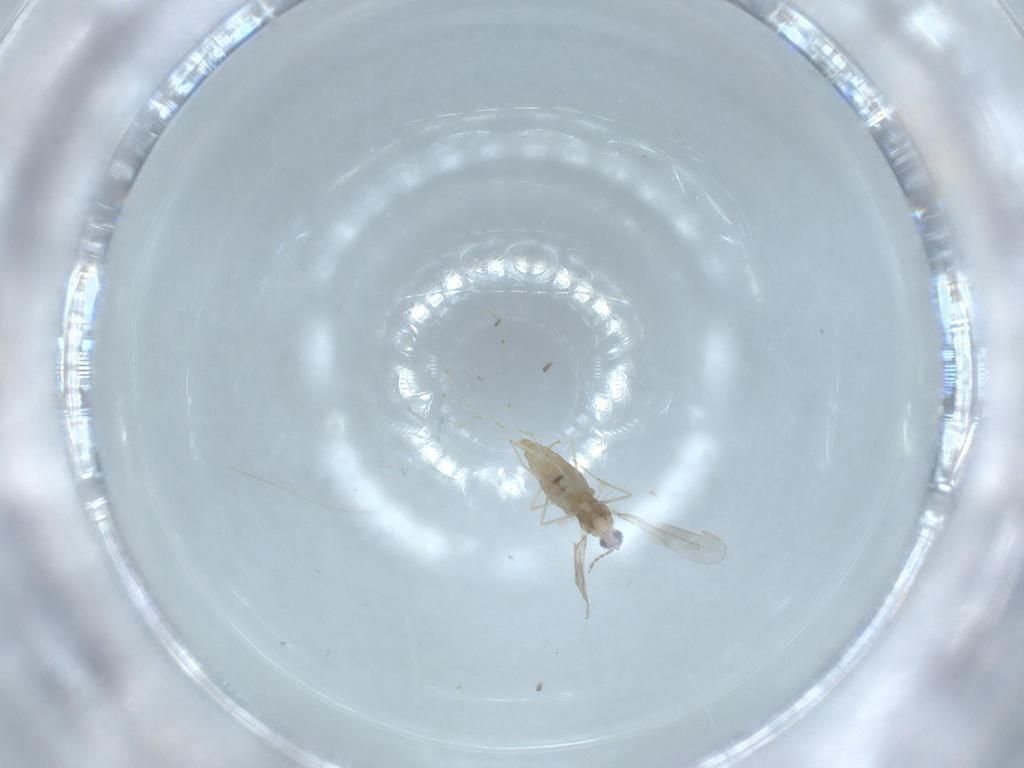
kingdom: Animalia
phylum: Arthropoda
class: Insecta
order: Diptera
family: Cecidomyiidae
